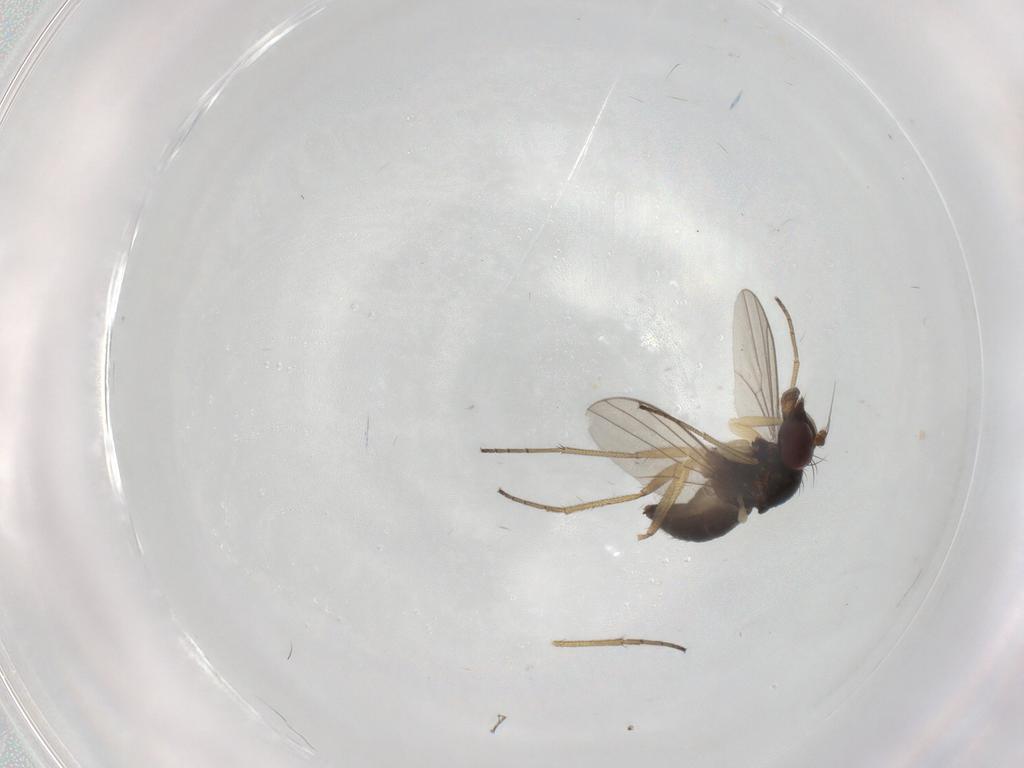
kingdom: Animalia
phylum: Arthropoda
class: Insecta
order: Diptera
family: Dolichopodidae
